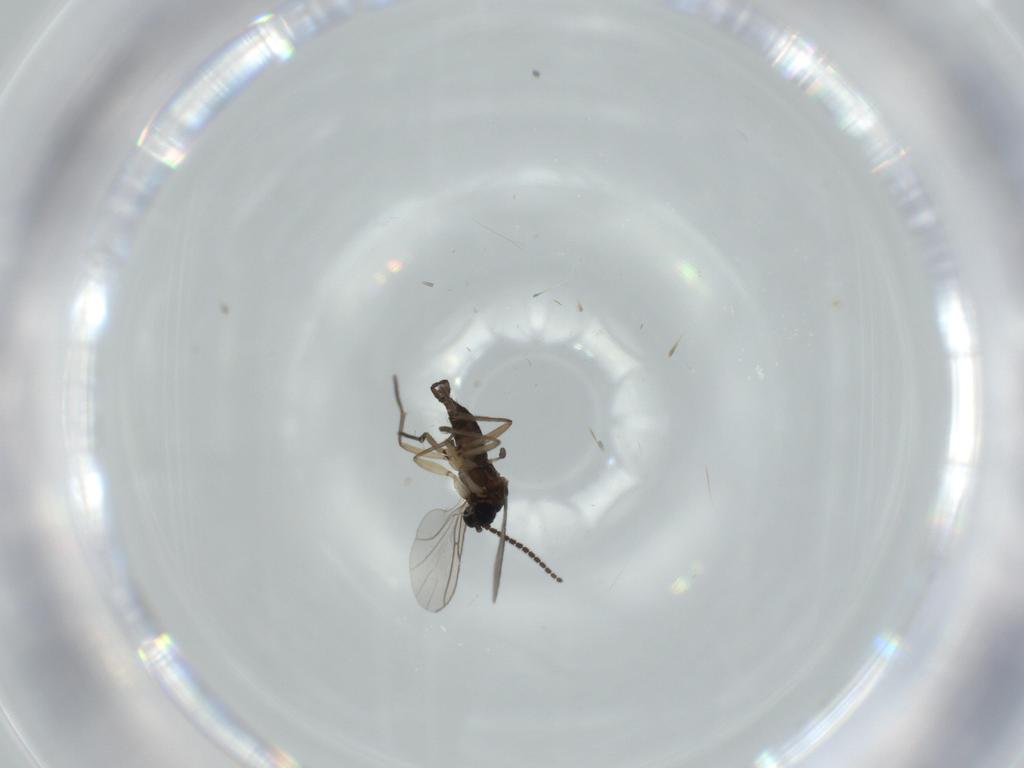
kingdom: Animalia
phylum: Arthropoda
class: Insecta
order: Diptera
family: Sciaridae
